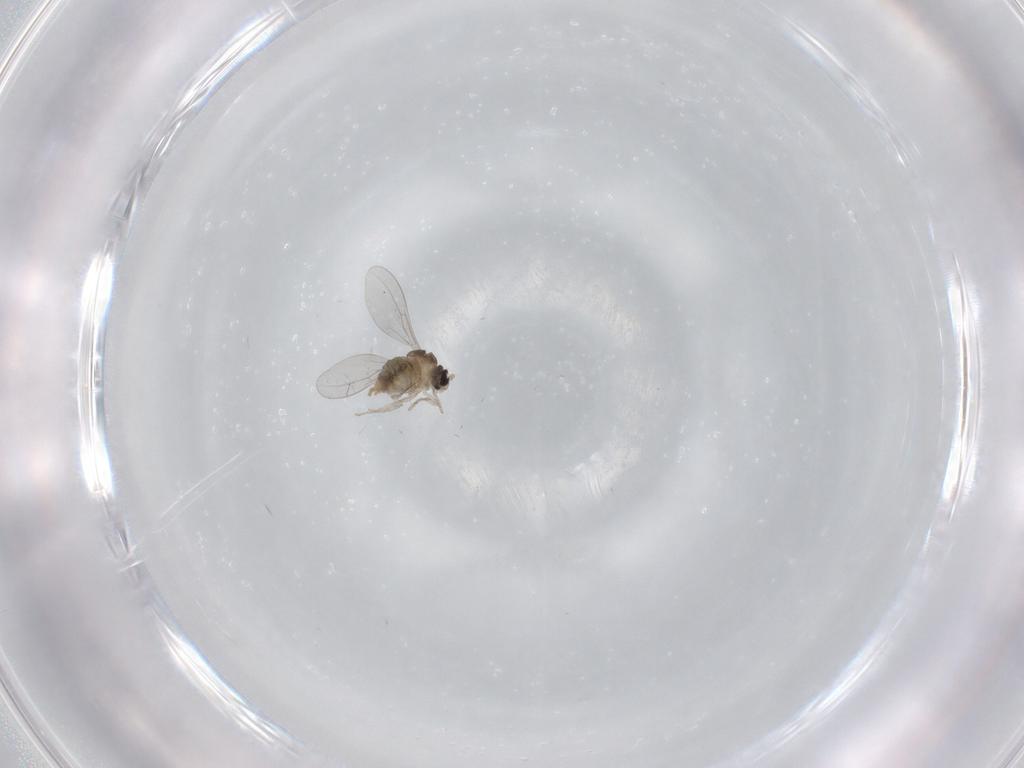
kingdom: Animalia
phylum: Arthropoda
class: Insecta
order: Diptera
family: Cecidomyiidae
